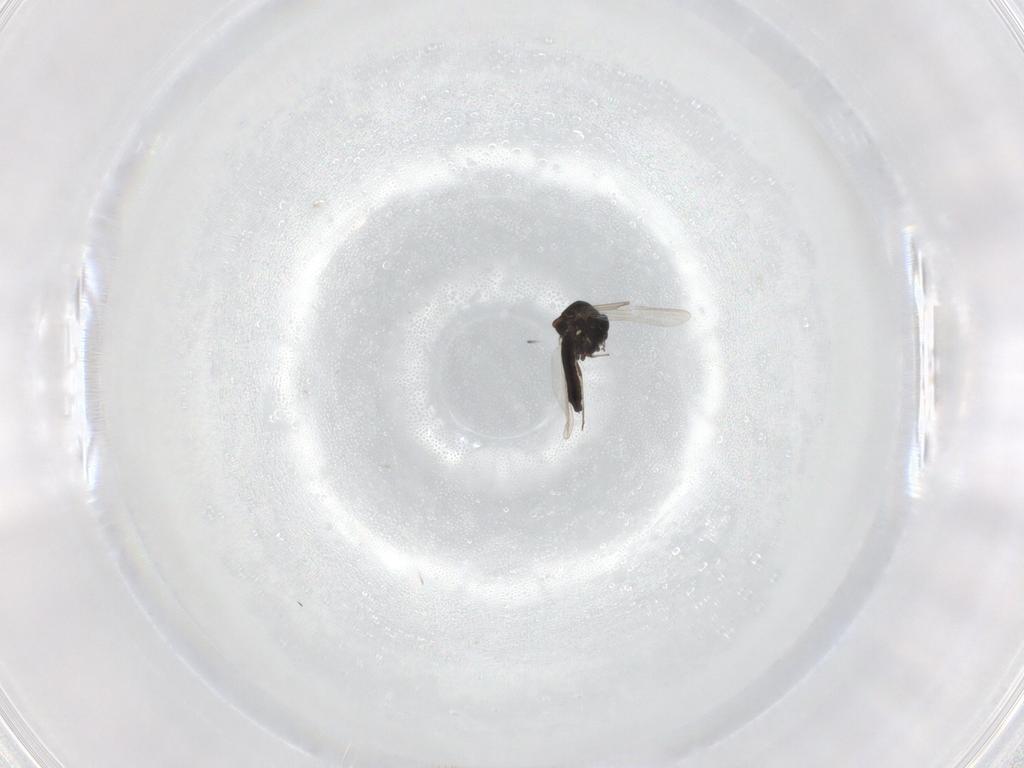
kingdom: Animalia
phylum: Arthropoda
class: Insecta
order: Diptera
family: Ceratopogonidae
